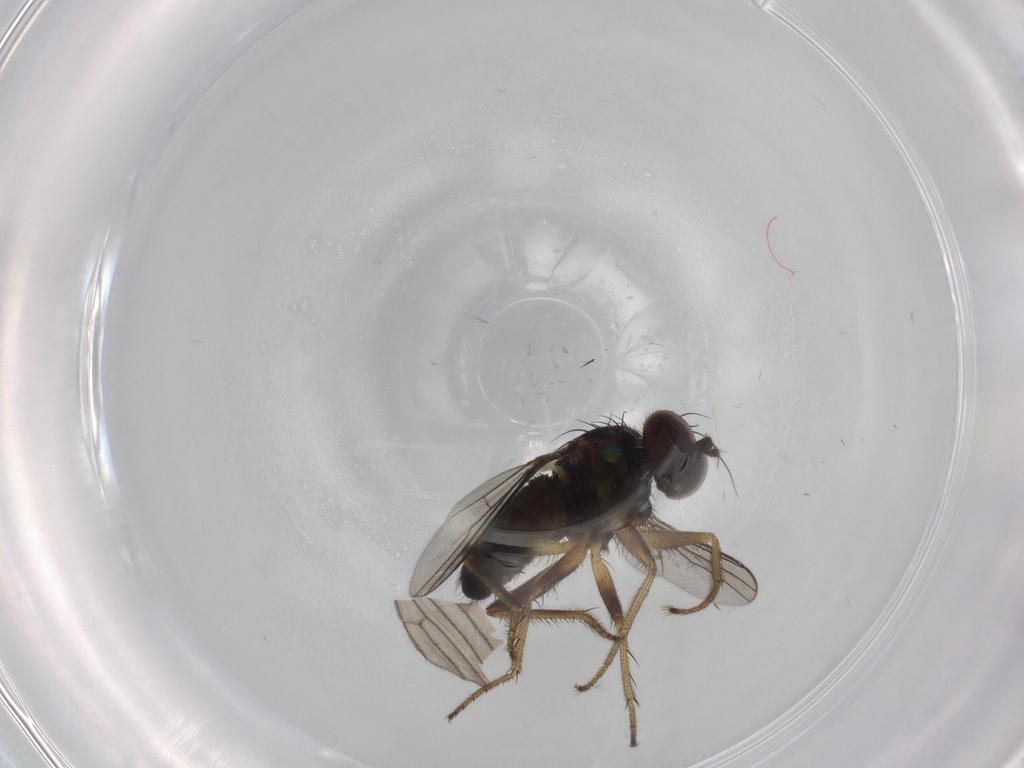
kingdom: Animalia
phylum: Arthropoda
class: Insecta
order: Diptera
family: Dolichopodidae
